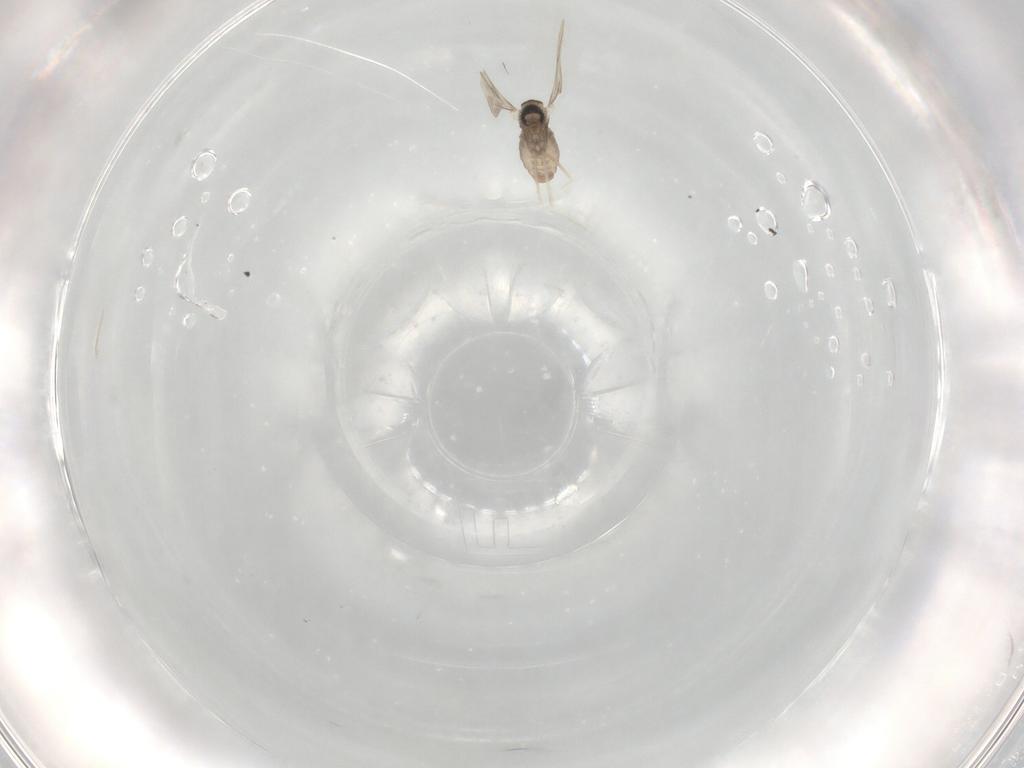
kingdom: Animalia
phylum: Arthropoda
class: Insecta
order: Diptera
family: Cecidomyiidae
